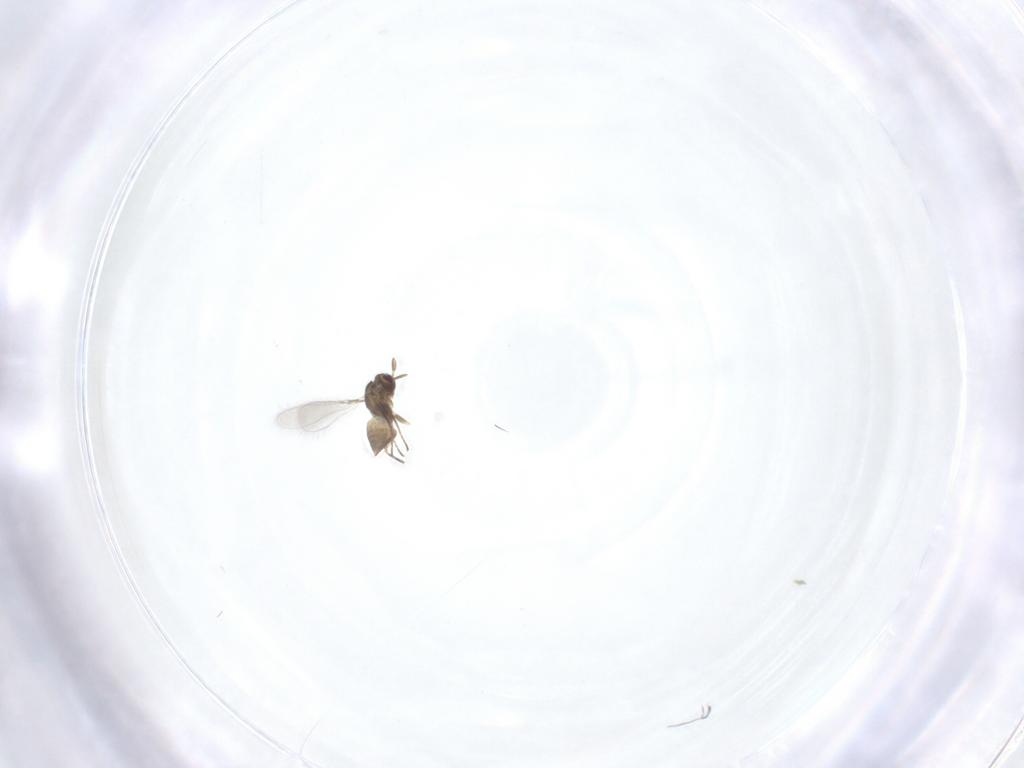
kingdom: Animalia
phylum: Arthropoda
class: Insecta
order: Hymenoptera
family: Mymaridae
